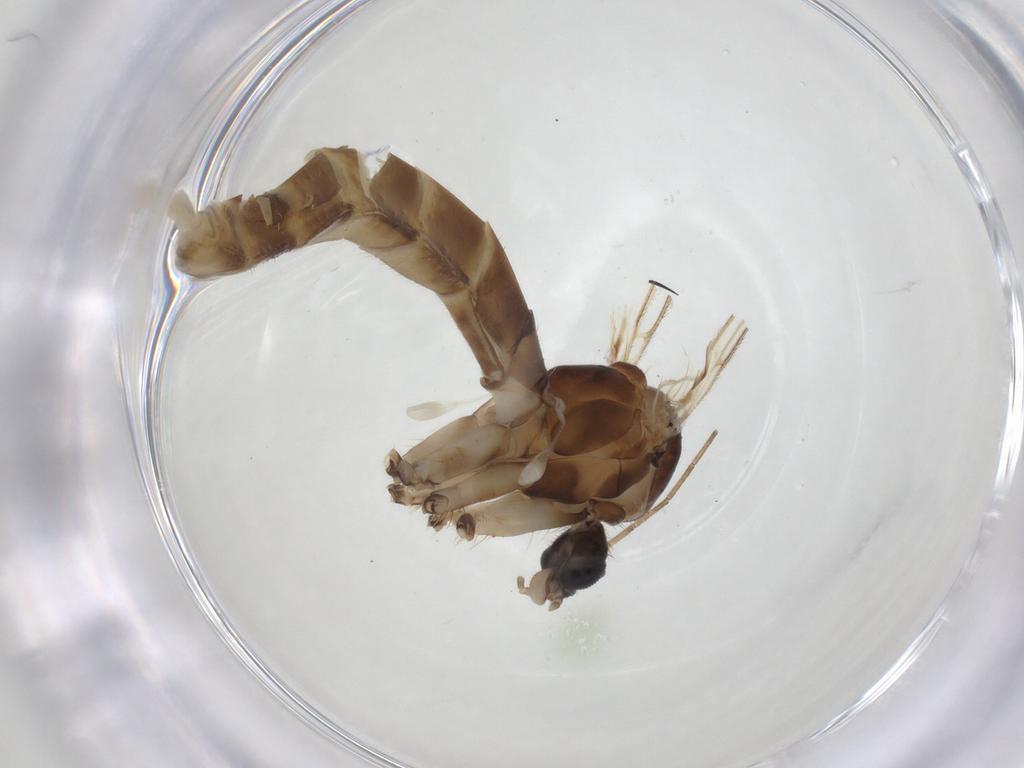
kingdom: Animalia
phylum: Arthropoda
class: Insecta
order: Diptera
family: Mycetophilidae
